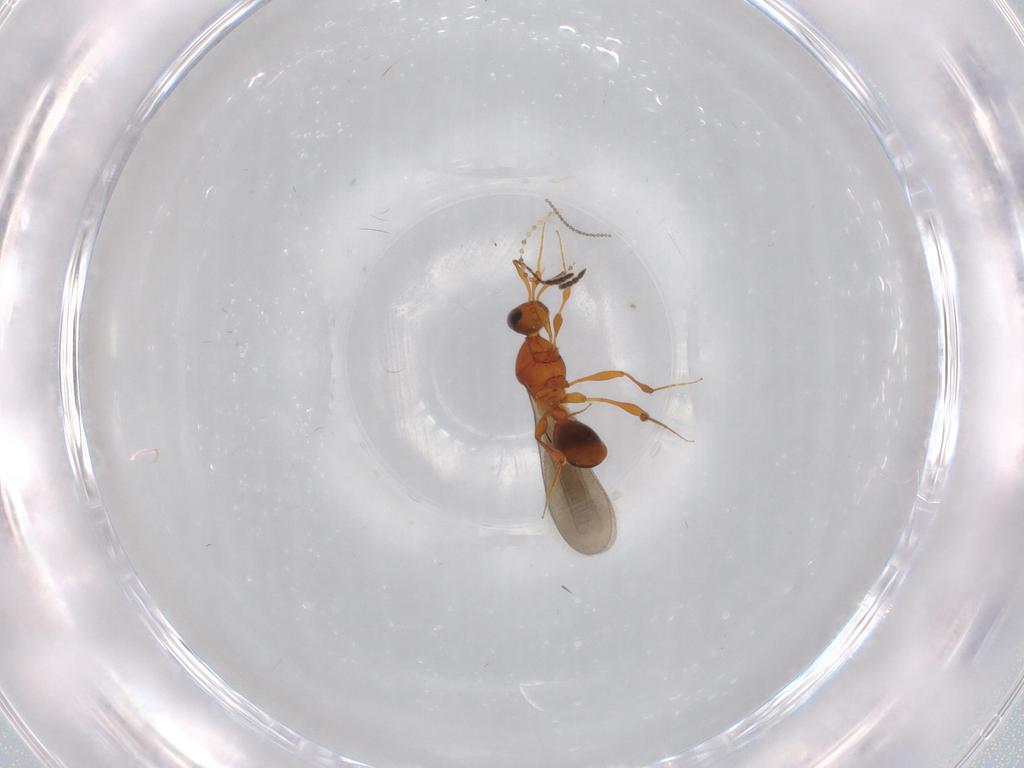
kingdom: Animalia
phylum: Arthropoda
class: Insecta
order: Hymenoptera
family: Platygastridae
